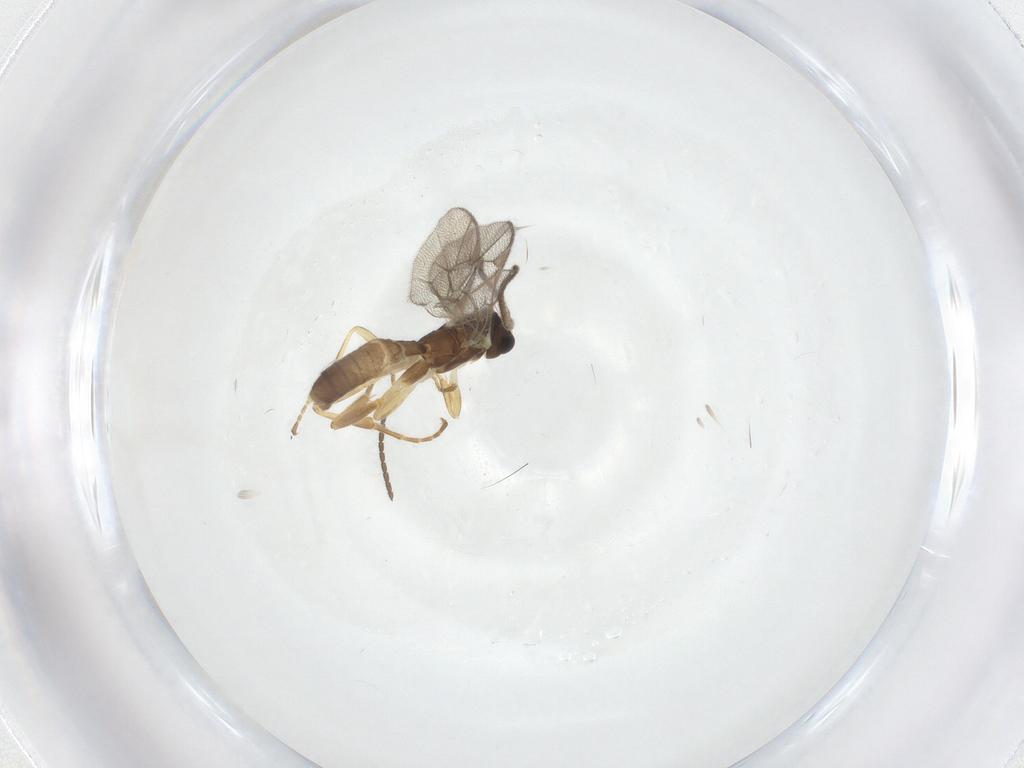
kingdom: Animalia
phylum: Arthropoda
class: Insecta
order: Hymenoptera
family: Ichneumonidae
